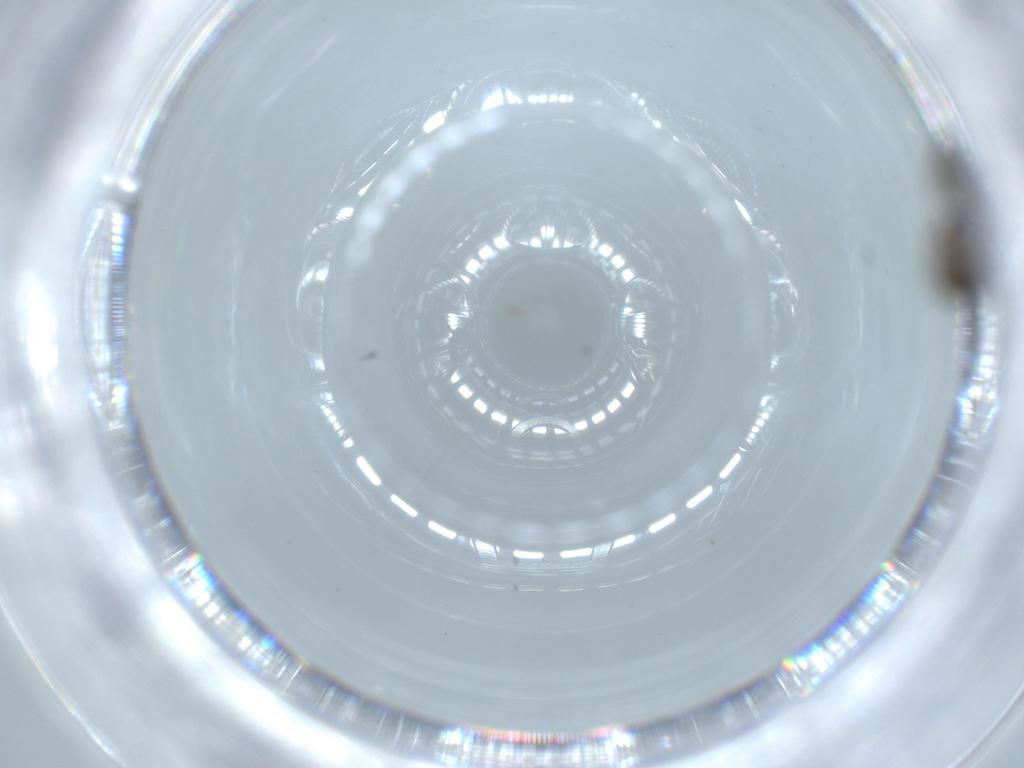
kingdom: Animalia
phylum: Arthropoda
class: Insecta
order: Diptera
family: Psychodidae
